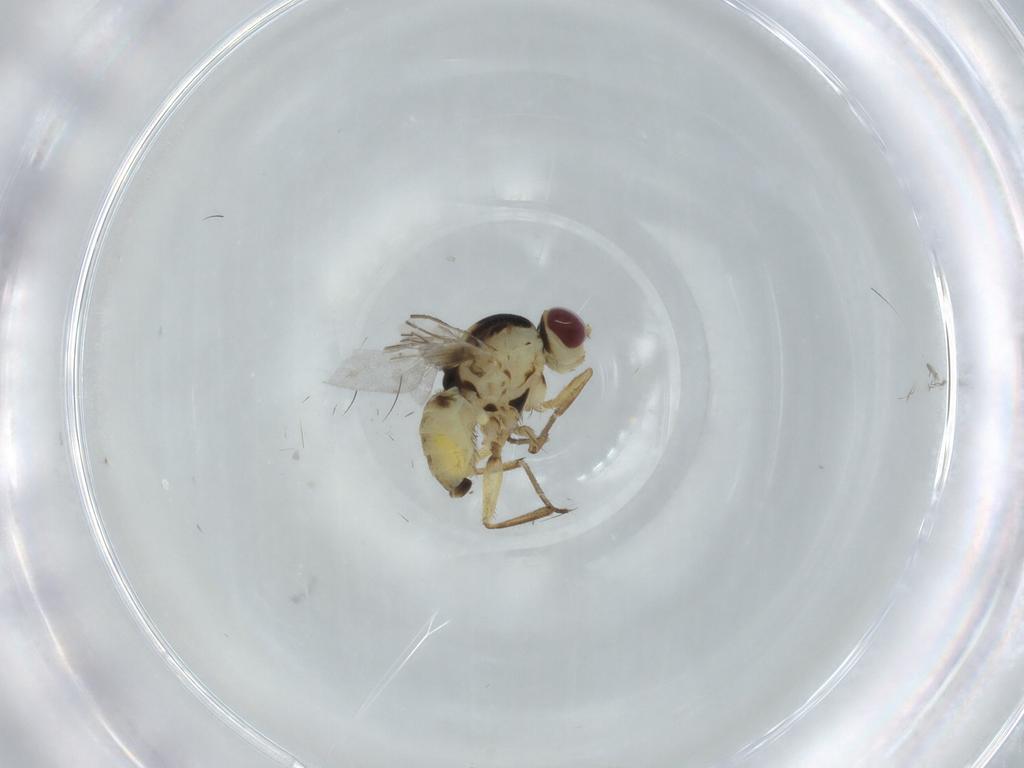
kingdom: Animalia
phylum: Arthropoda
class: Insecta
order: Diptera
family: Agromyzidae
